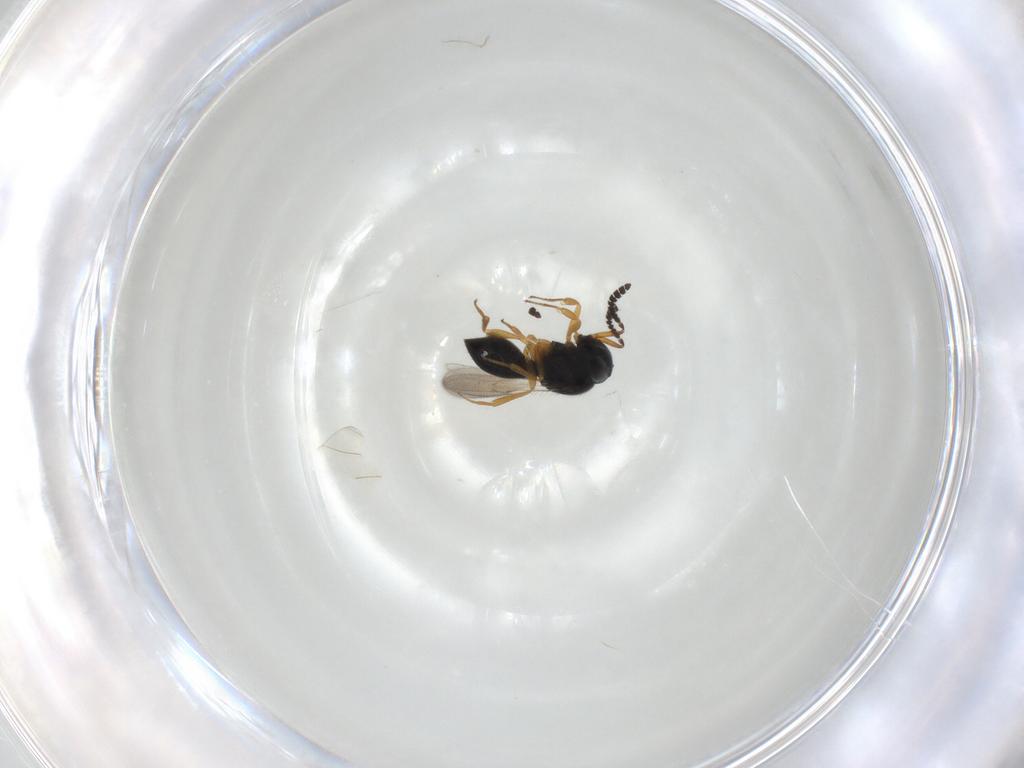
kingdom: Animalia
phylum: Arthropoda
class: Insecta
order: Hymenoptera
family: Scelionidae
